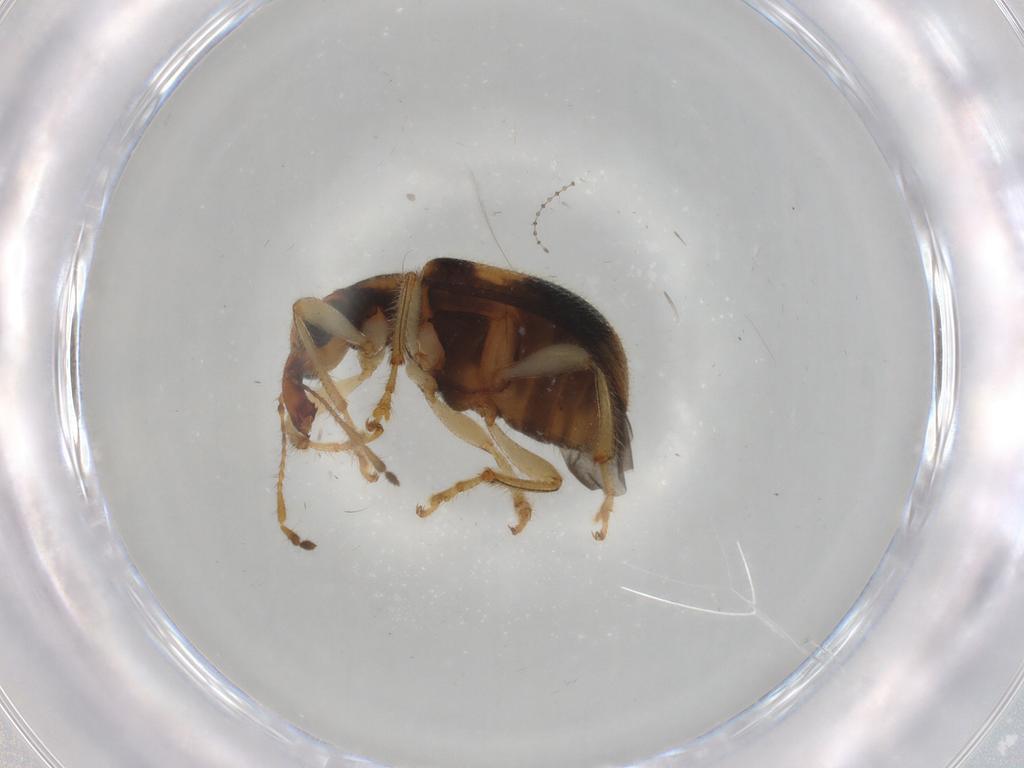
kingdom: Animalia
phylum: Arthropoda
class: Insecta
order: Coleoptera
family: Attelabidae
